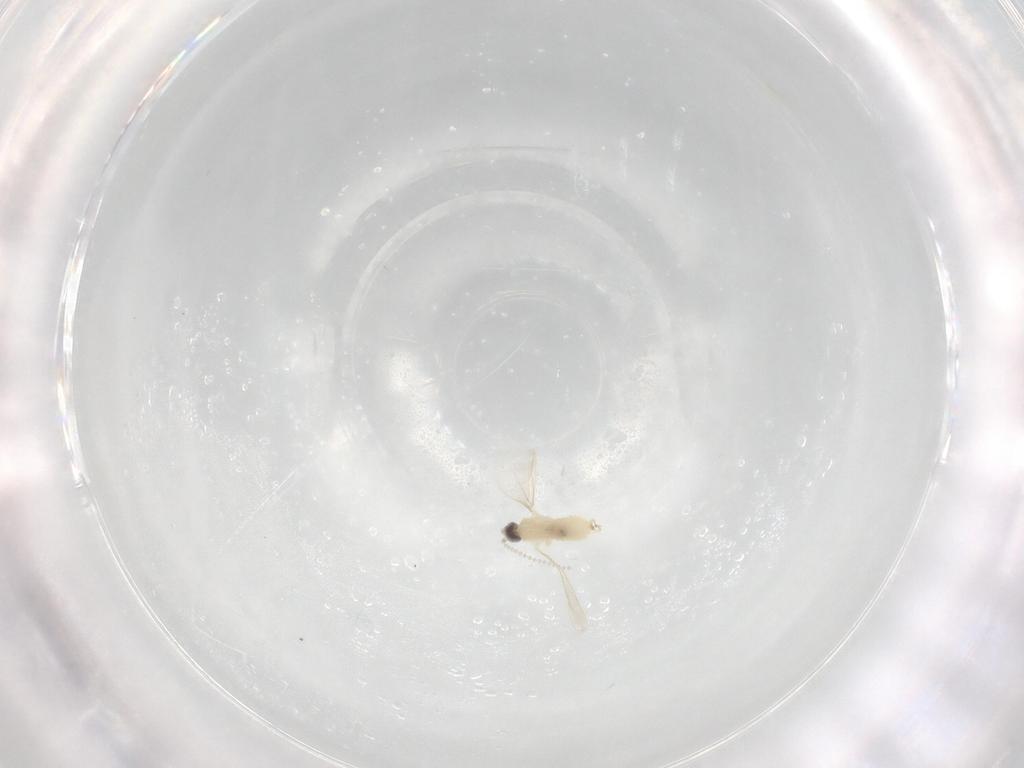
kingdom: Animalia
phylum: Arthropoda
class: Insecta
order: Diptera
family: Cecidomyiidae
